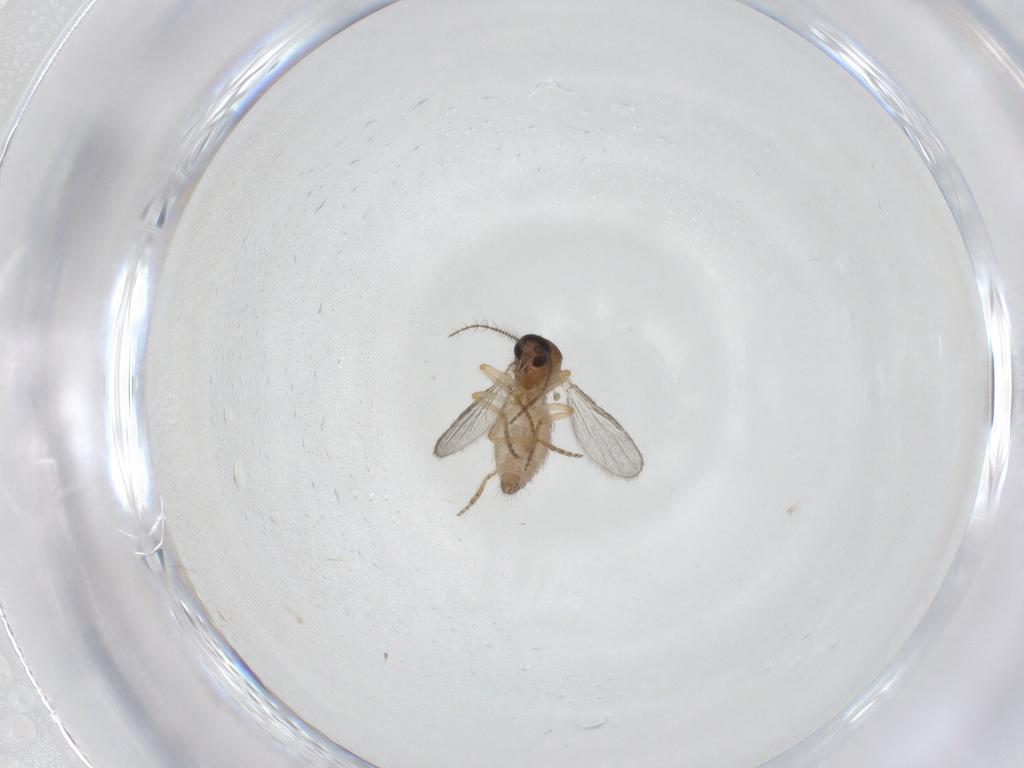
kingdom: Animalia
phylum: Arthropoda
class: Insecta
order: Diptera
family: Ceratopogonidae
